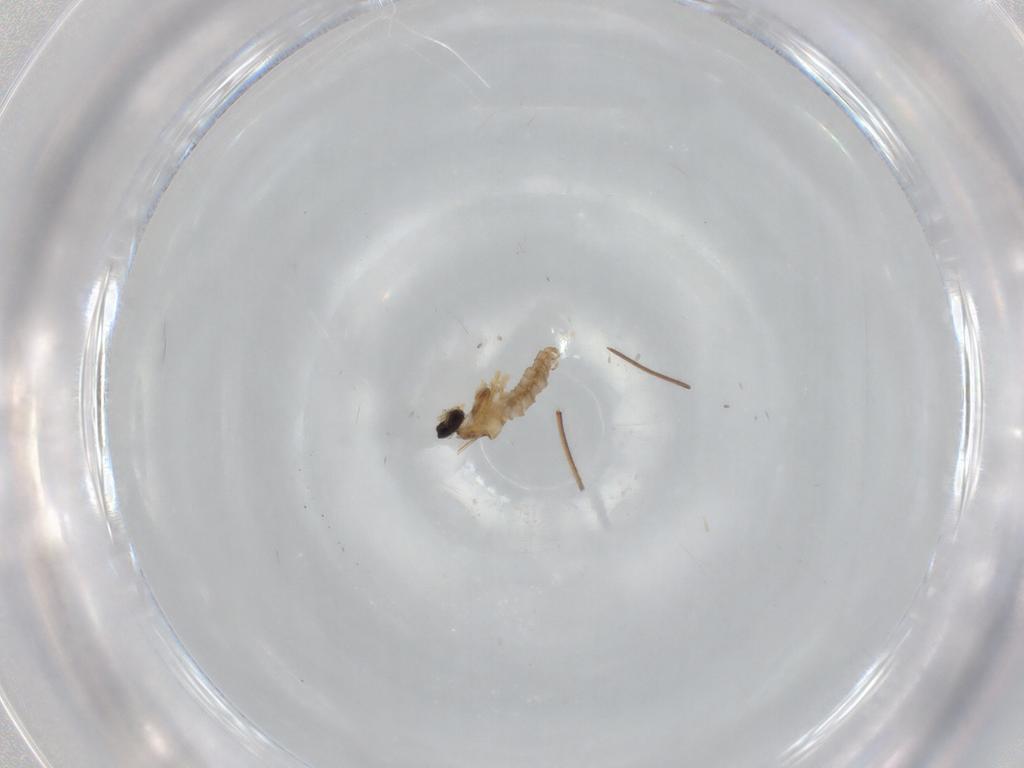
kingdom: Animalia
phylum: Arthropoda
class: Insecta
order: Diptera
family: Cecidomyiidae
